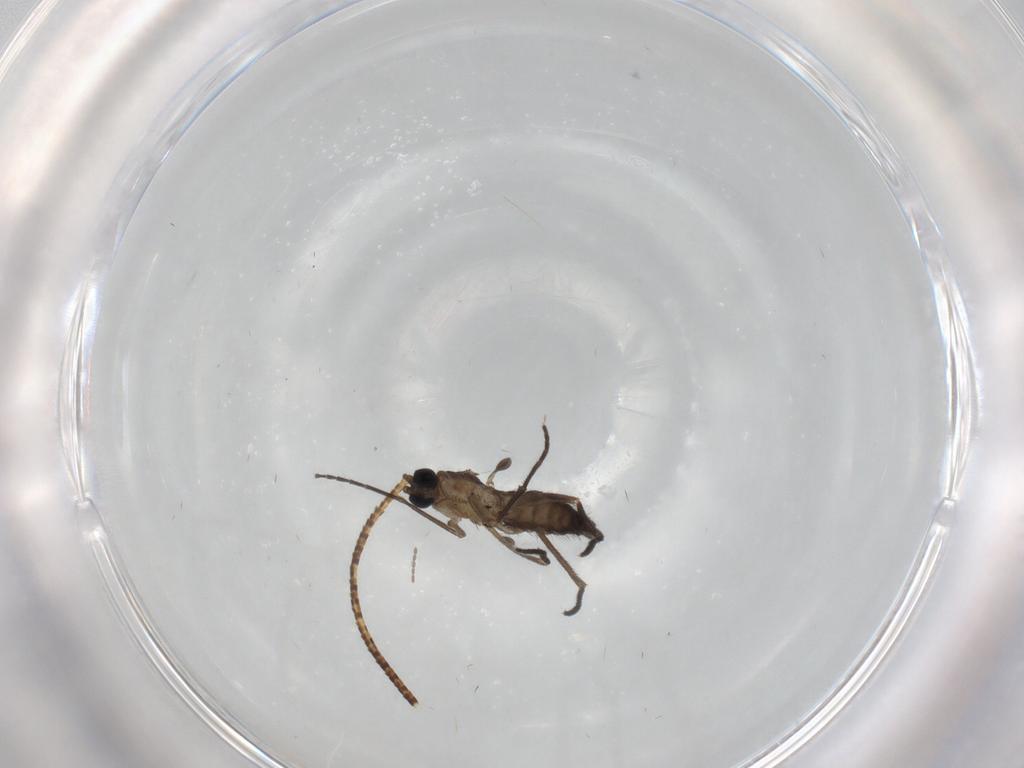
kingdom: Animalia
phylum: Arthropoda
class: Insecta
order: Diptera
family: Sciaridae
